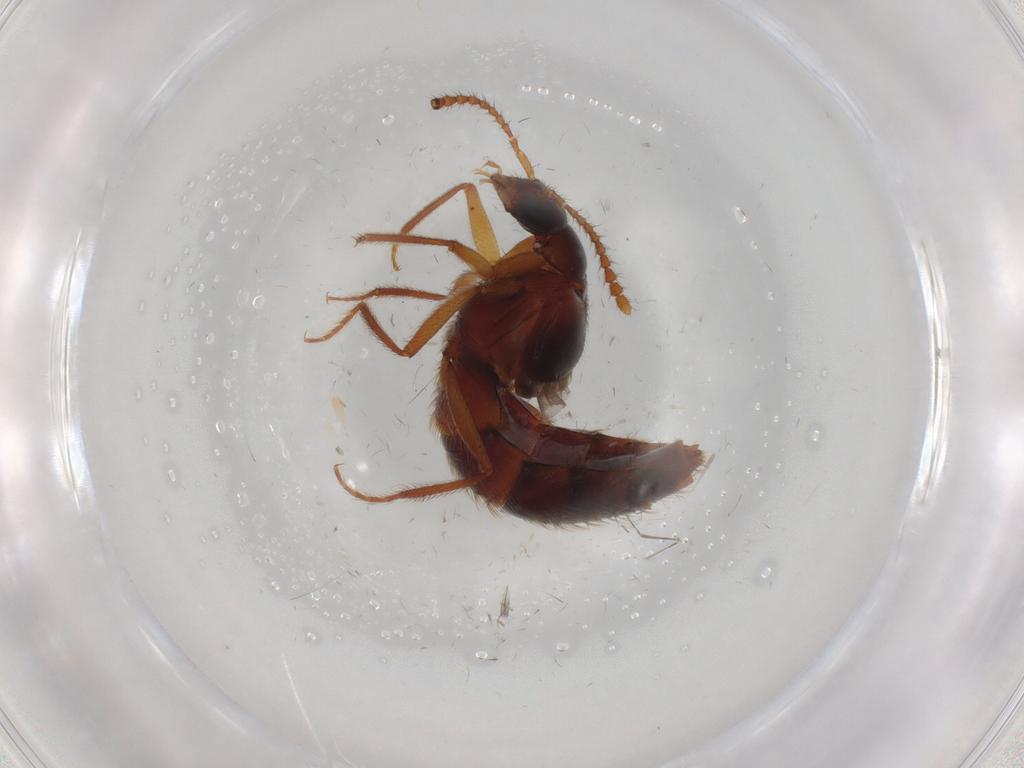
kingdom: Animalia
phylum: Arthropoda
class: Insecta
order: Coleoptera
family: Staphylinidae
